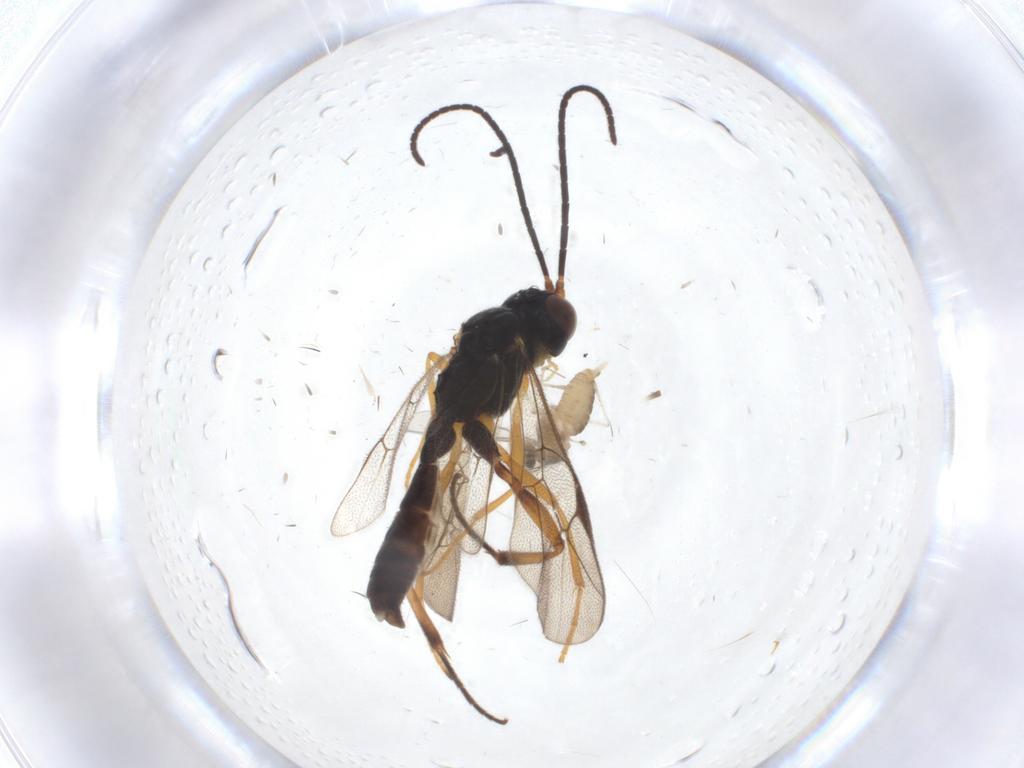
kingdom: Animalia
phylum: Arthropoda
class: Insecta
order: Diptera
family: Cecidomyiidae
